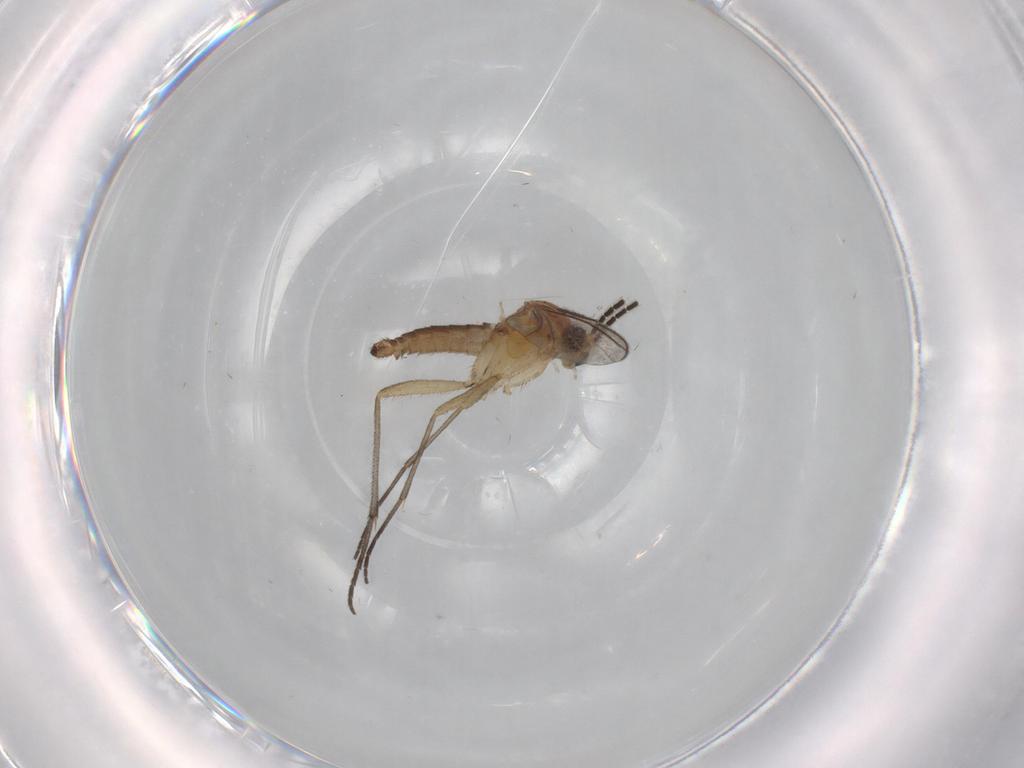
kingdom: Animalia
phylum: Arthropoda
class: Insecta
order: Diptera
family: Sciaridae
